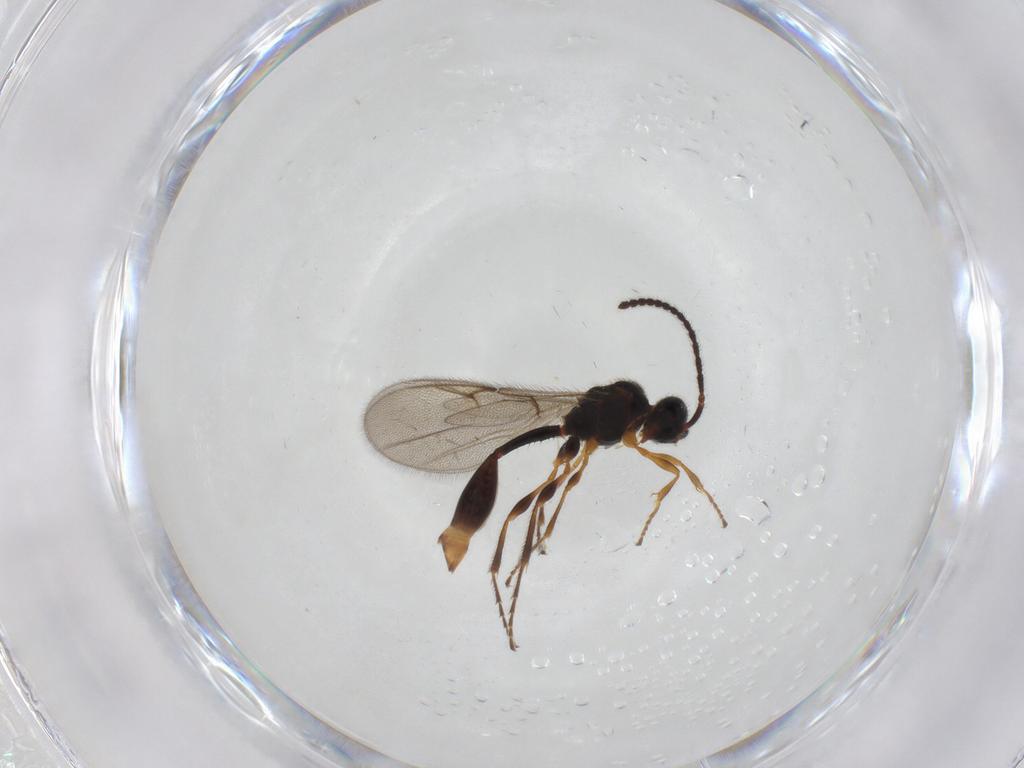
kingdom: Animalia
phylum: Arthropoda
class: Insecta
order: Hymenoptera
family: Diapriidae
